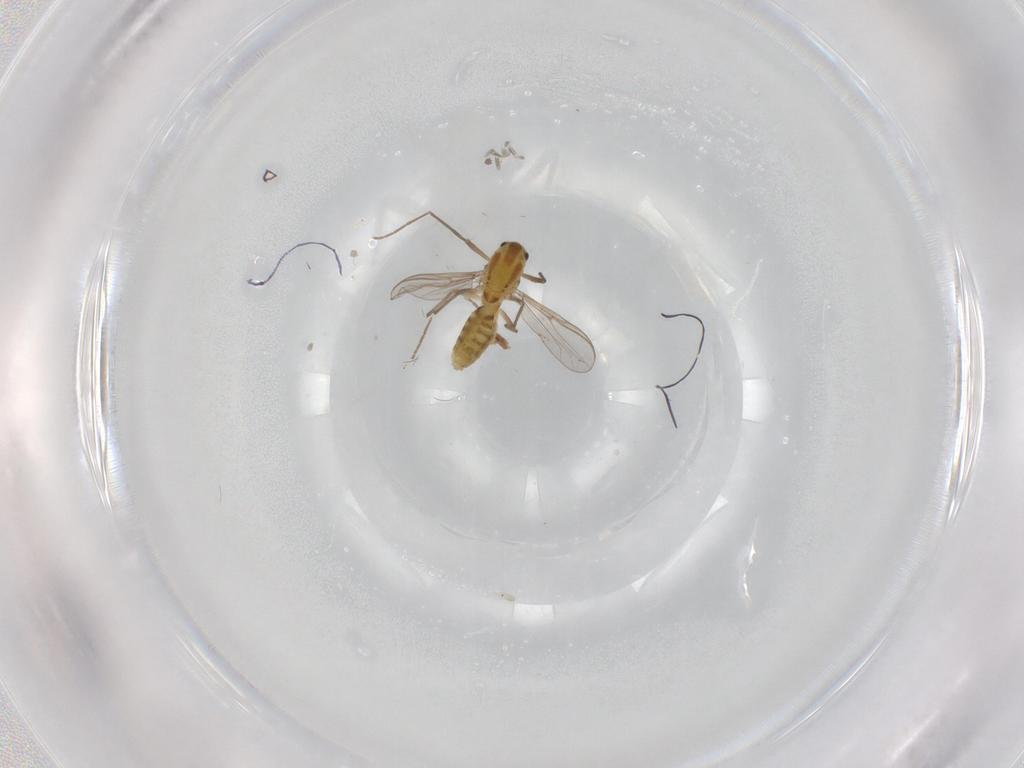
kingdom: Animalia
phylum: Arthropoda
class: Insecta
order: Diptera
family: Chironomidae
